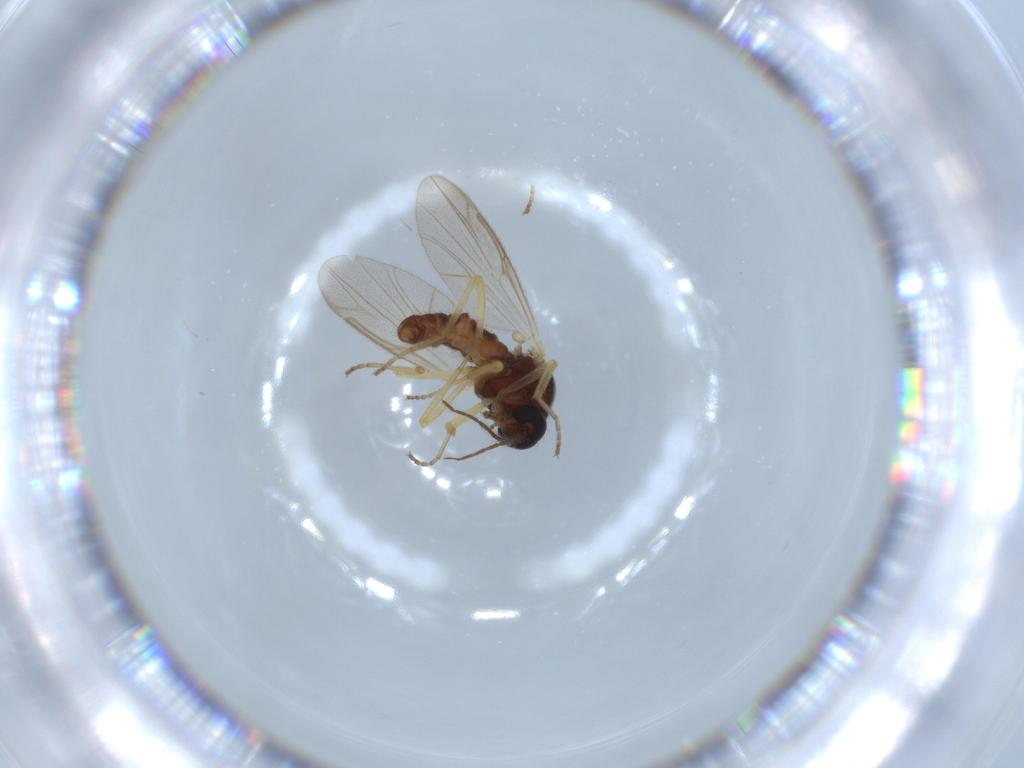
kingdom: Animalia
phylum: Arthropoda
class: Insecta
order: Diptera
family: Ceratopogonidae
